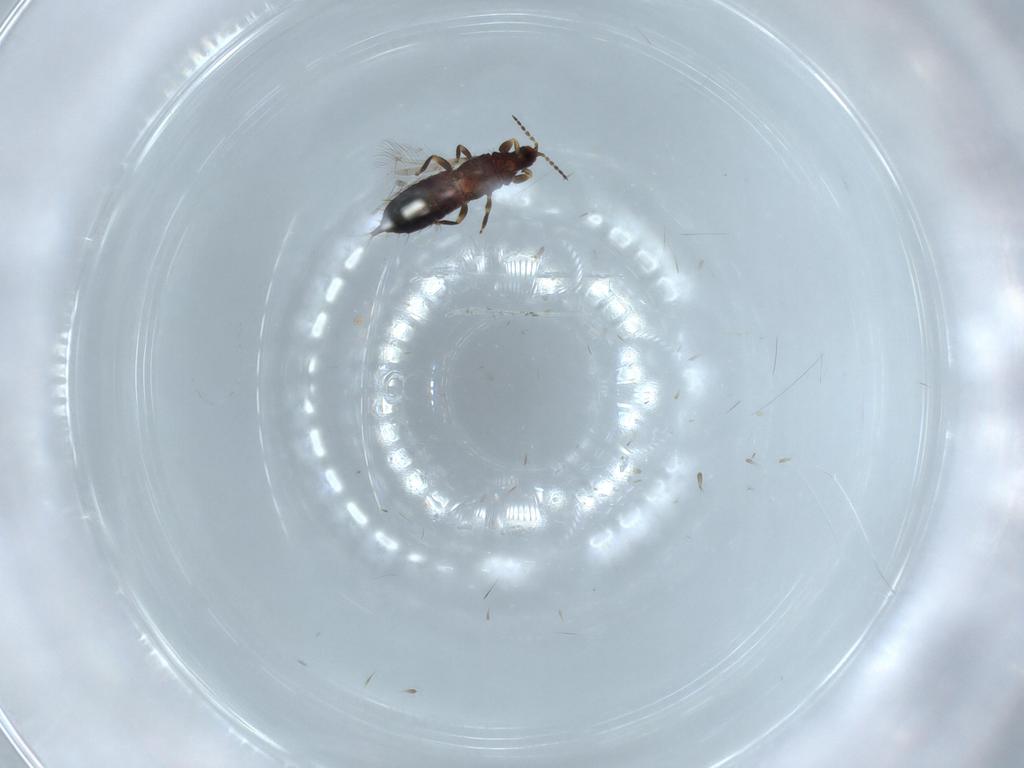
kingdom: Animalia
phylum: Arthropoda
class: Insecta
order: Thysanoptera
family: Phlaeothripidae
